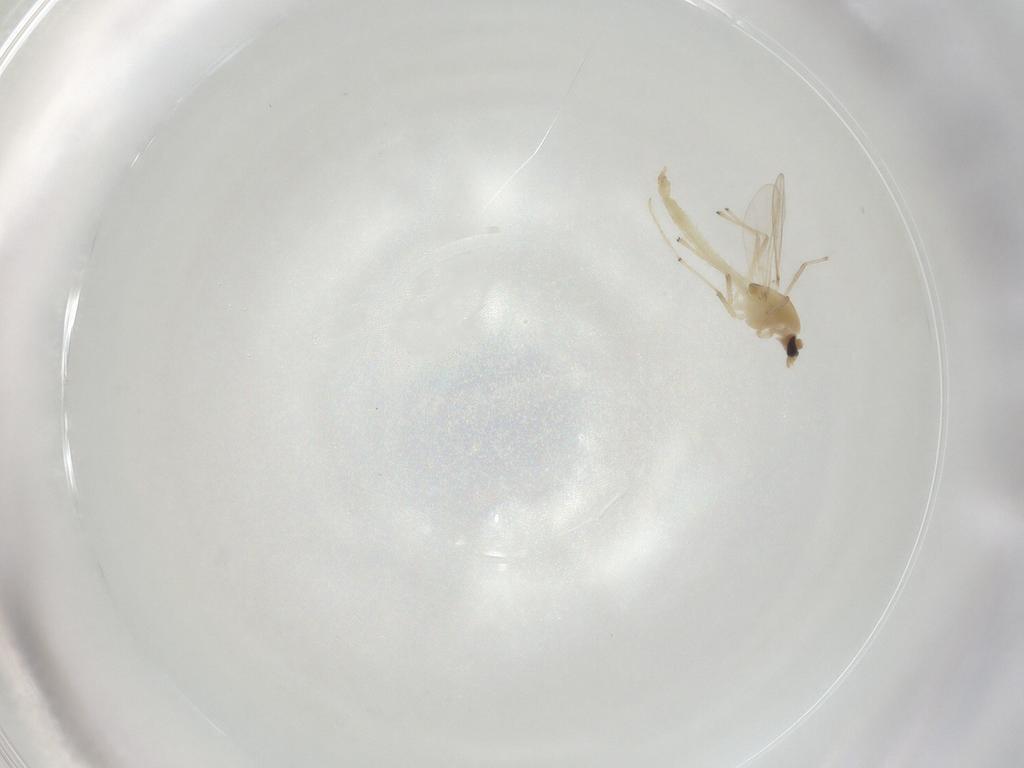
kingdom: Animalia
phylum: Arthropoda
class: Insecta
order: Diptera
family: Chironomidae
